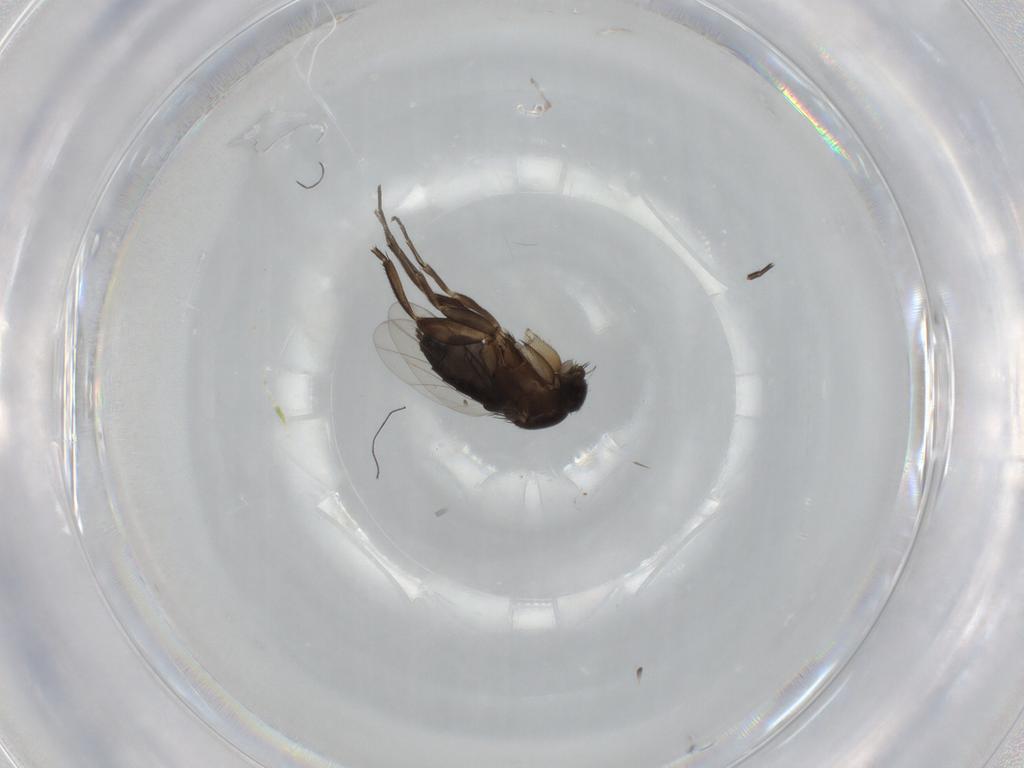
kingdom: Animalia
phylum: Arthropoda
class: Insecta
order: Diptera
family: Phoridae
